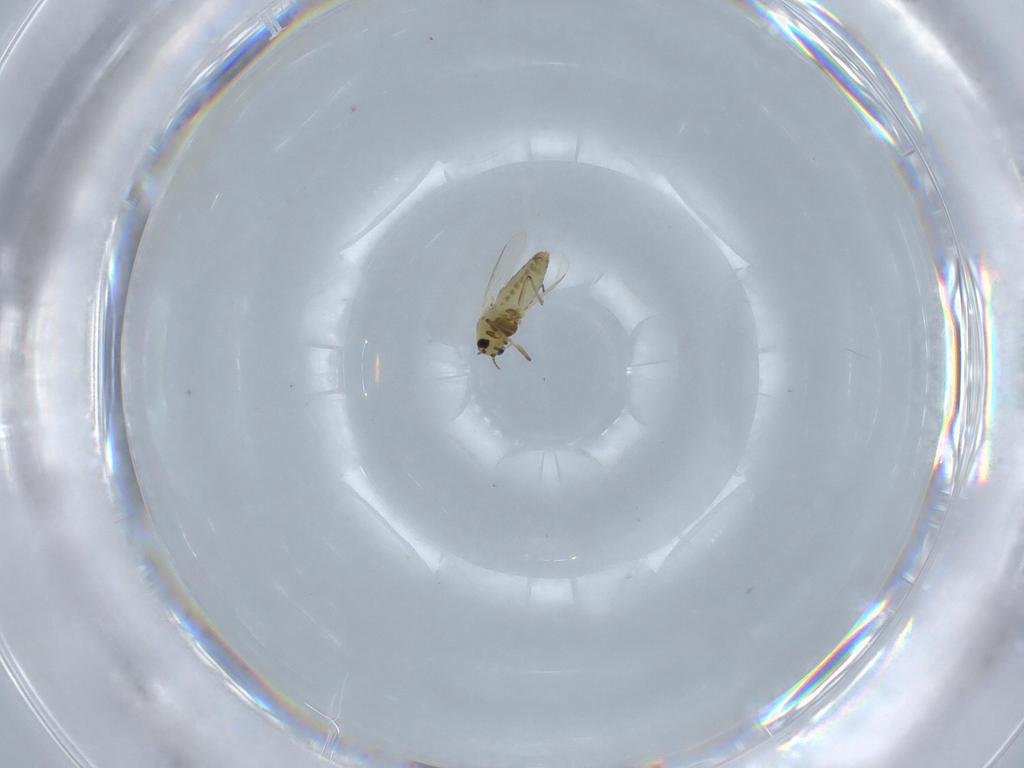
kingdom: Animalia
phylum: Arthropoda
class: Insecta
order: Diptera
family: Chironomidae
